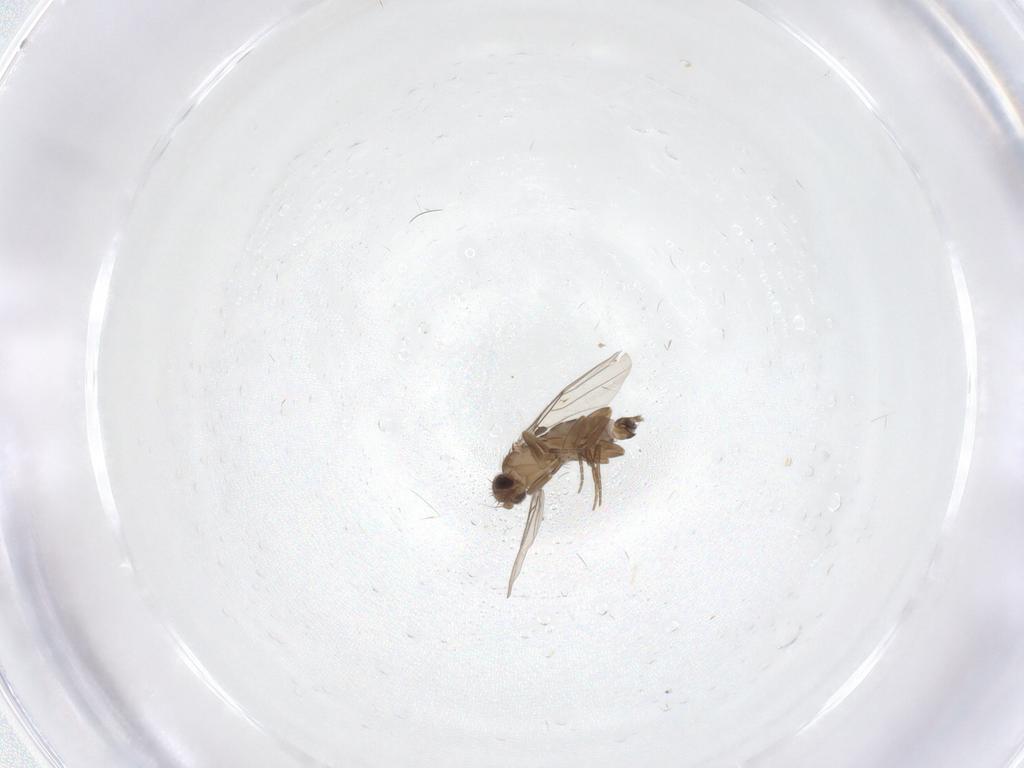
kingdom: Animalia
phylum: Arthropoda
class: Insecta
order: Diptera
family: Phoridae
